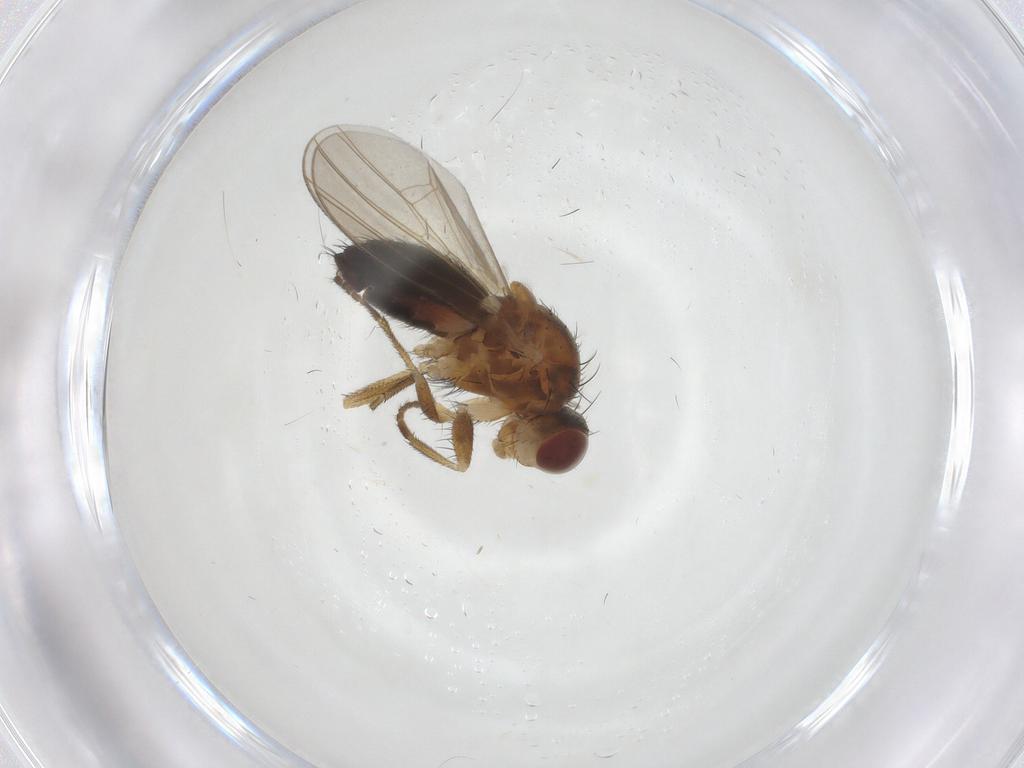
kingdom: Animalia
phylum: Arthropoda
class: Insecta
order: Diptera
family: Heleomyzidae
